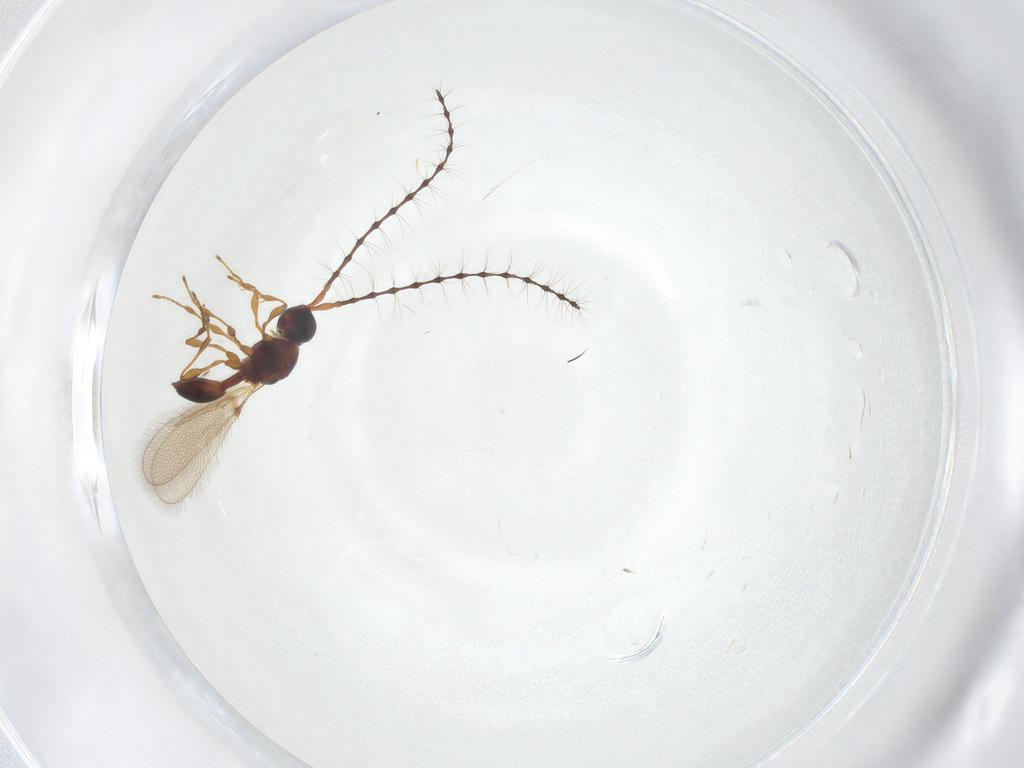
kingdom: Animalia
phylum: Arthropoda
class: Insecta
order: Hymenoptera
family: Diapriidae
